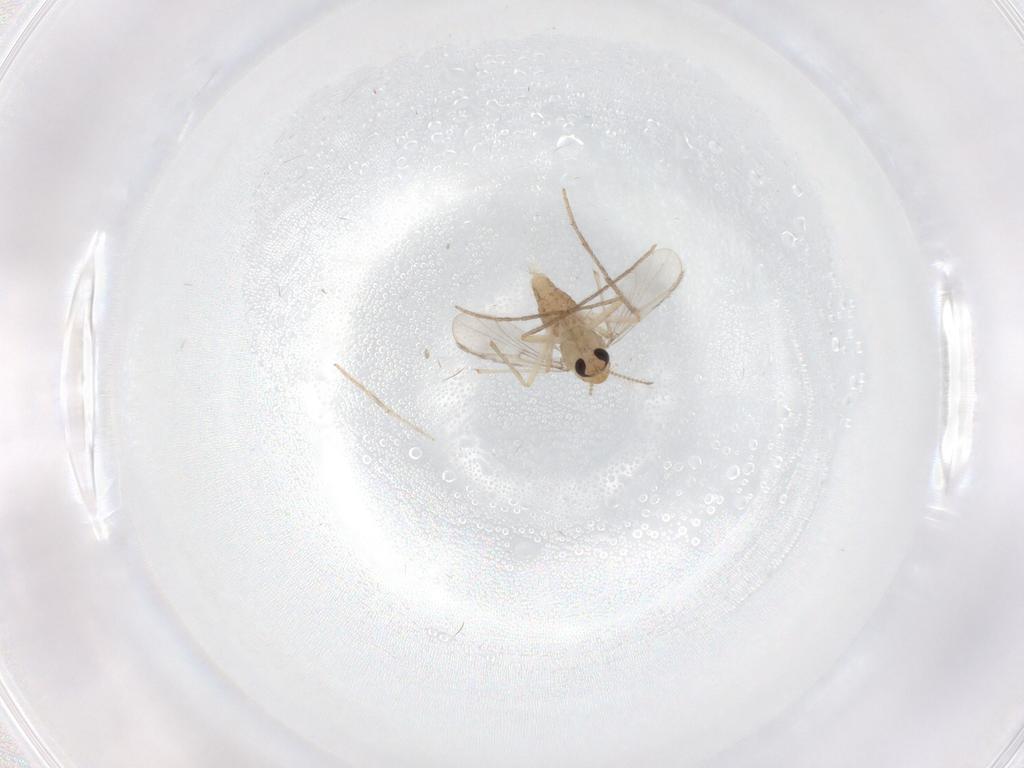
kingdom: Animalia
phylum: Arthropoda
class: Insecta
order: Diptera
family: Chironomidae
